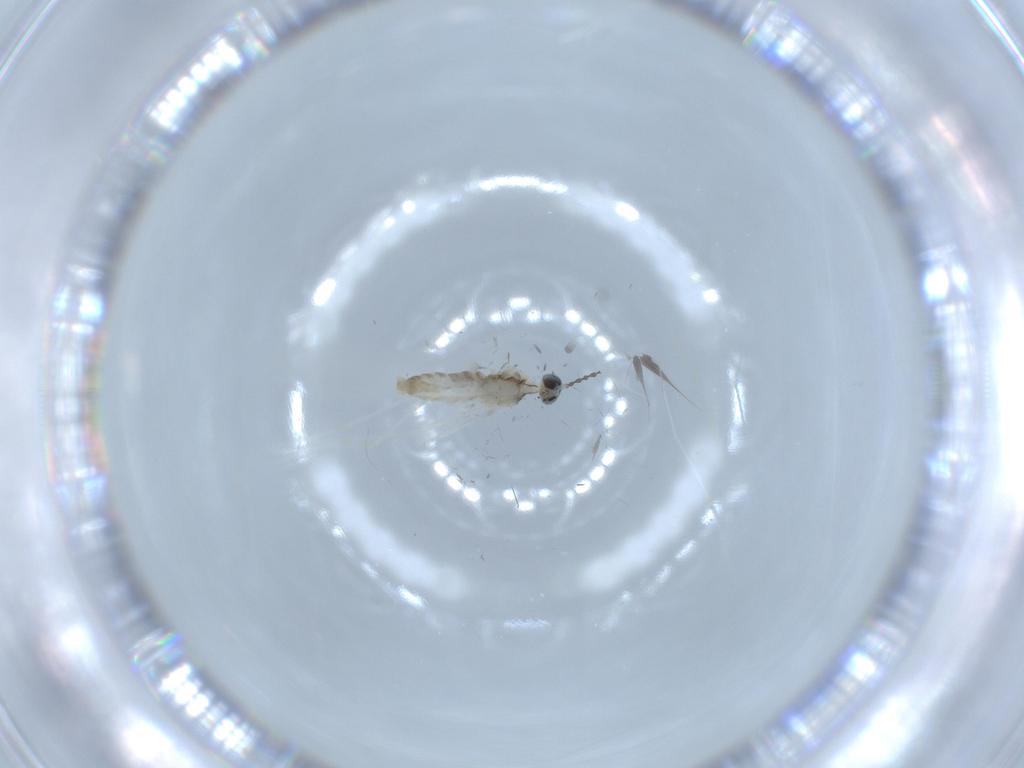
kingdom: Animalia
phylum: Arthropoda
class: Insecta
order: Diptera
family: Cecidomyiidae
